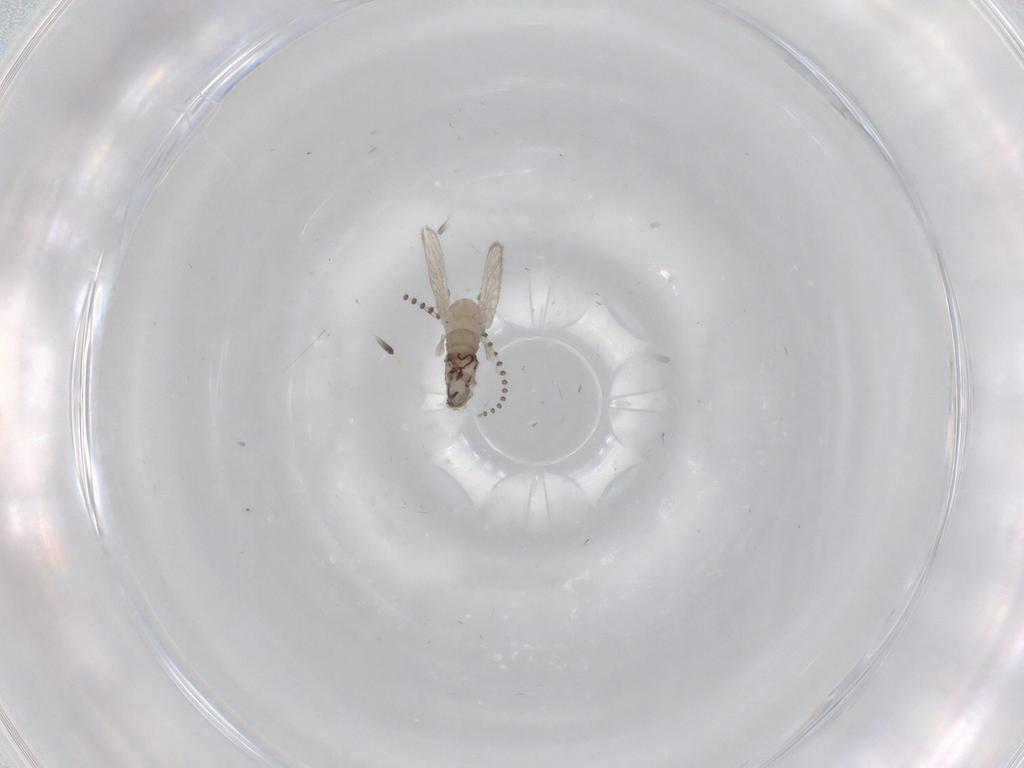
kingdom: Animalia
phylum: Arthropoda
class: Insecta
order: Diptera
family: Psychodidae
